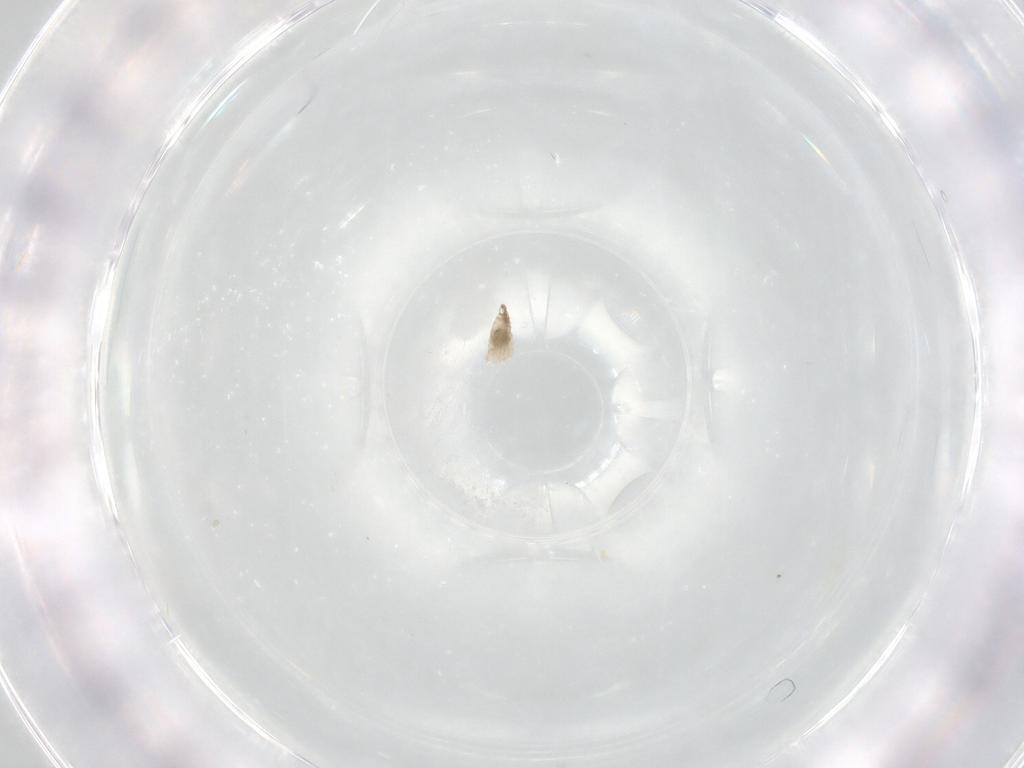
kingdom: Animalia
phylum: Arthropoda
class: Insecta
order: Diptera
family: Cecidomyiidae
